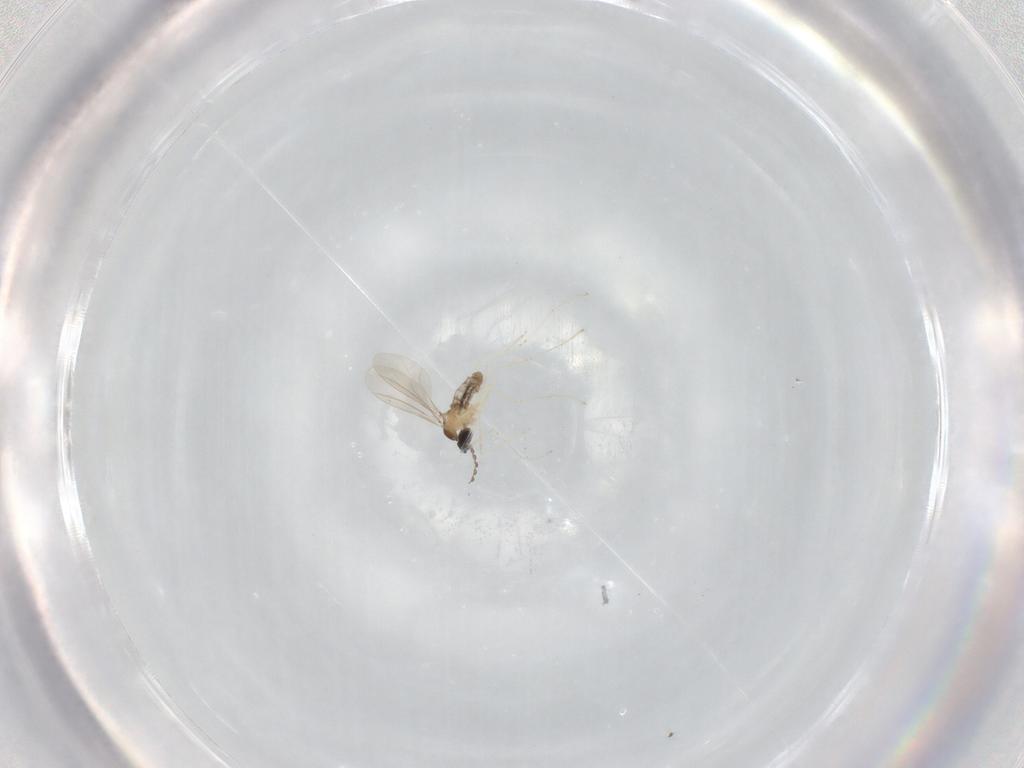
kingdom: Animalia
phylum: Arthropoda
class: Insecta
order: Diptera
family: Cecidomyiidae
